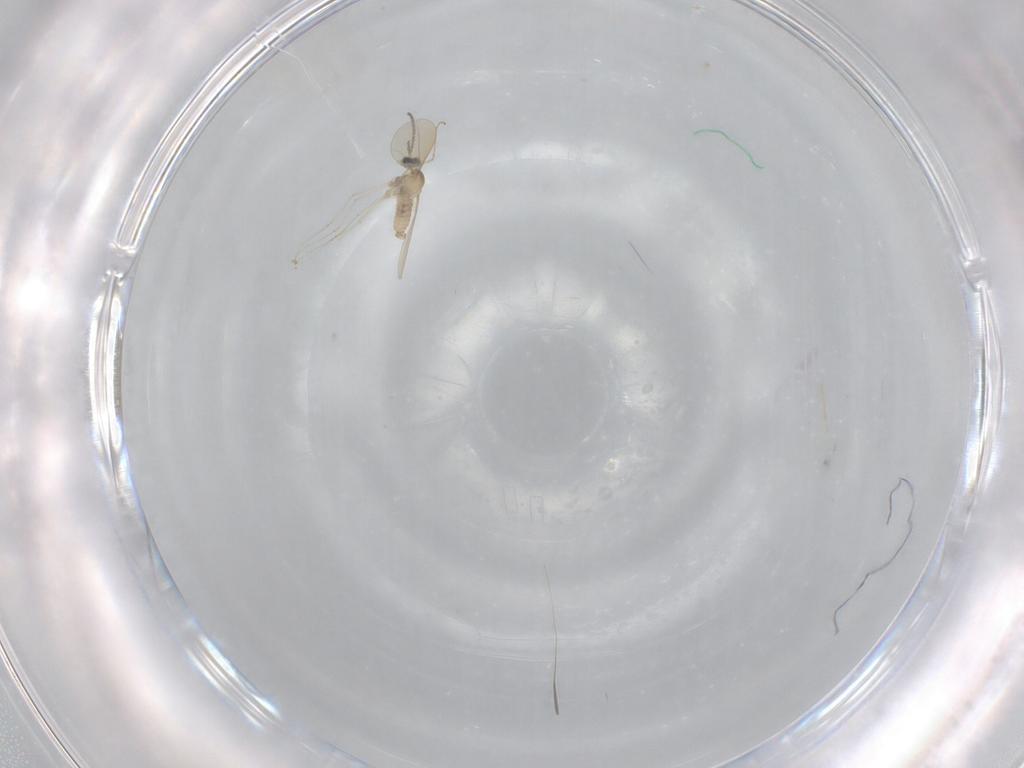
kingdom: Animalia
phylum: Arthropoda
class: Insecta
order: Diptera
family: Cecidomyiidae
